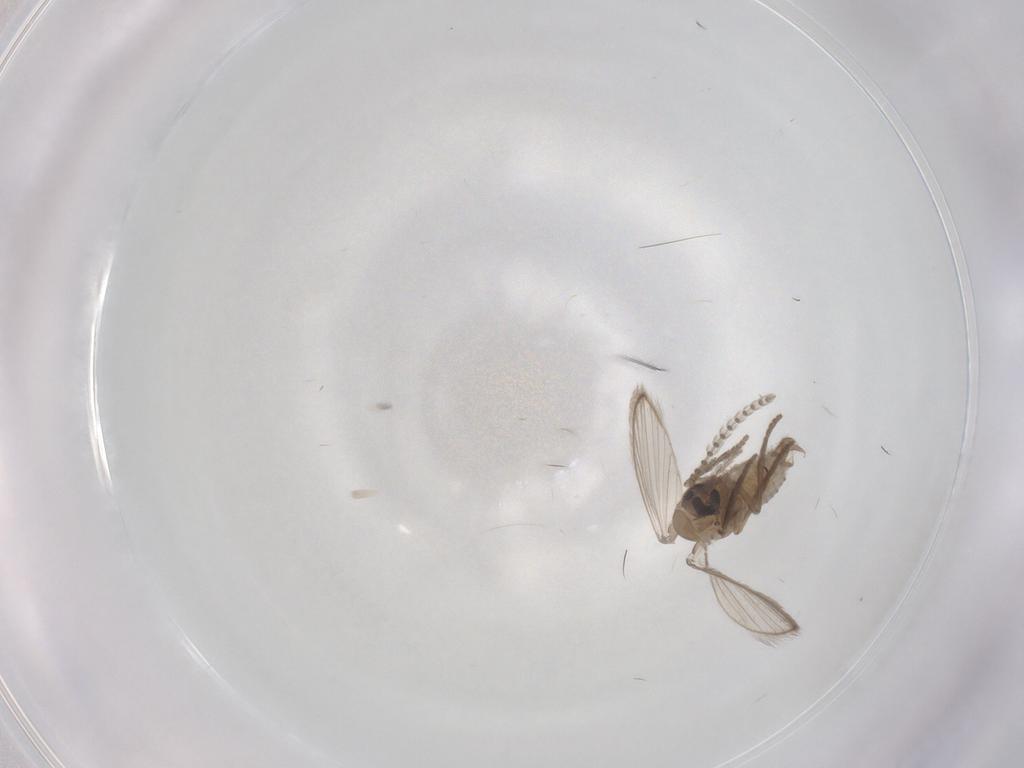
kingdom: Animalia
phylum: Arthropoda
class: Insecta
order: Diptera
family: Psychodidae
